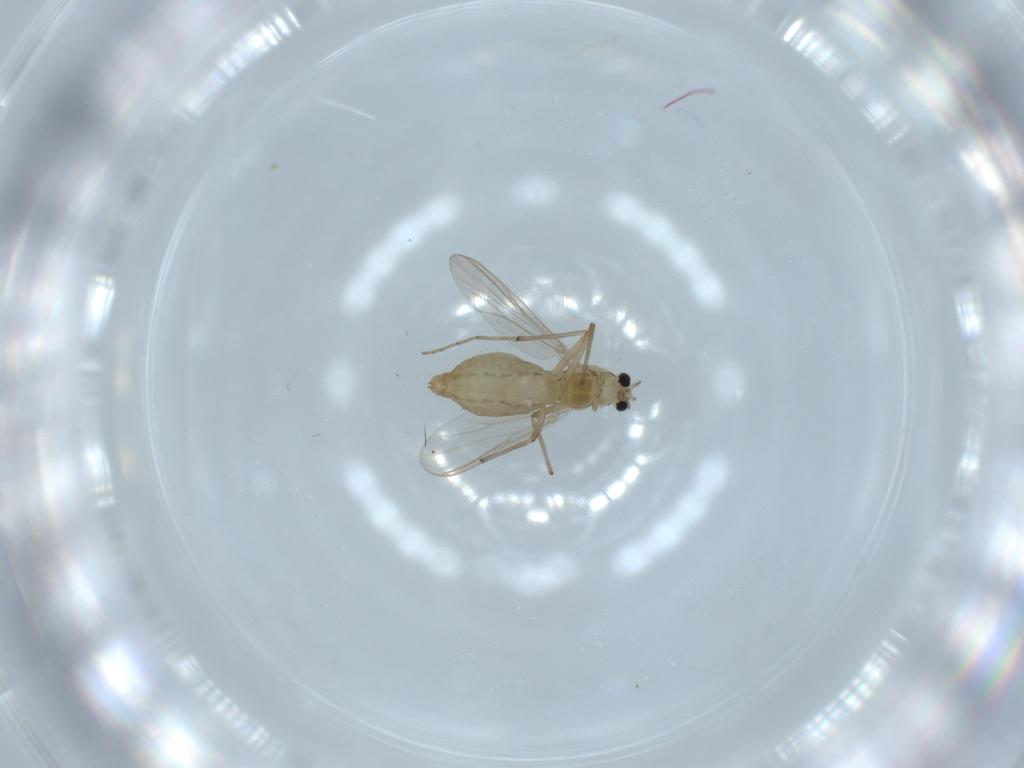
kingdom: Animalia
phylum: Arthropoda
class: Insecta
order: Diptera
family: Chironomidae
